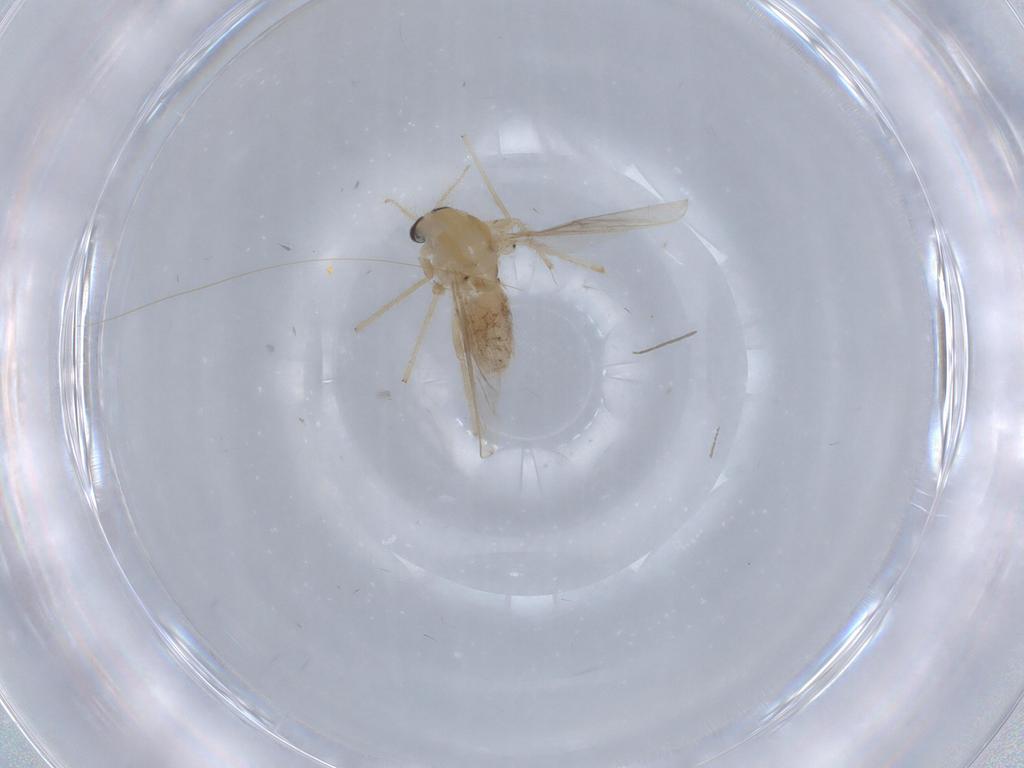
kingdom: Animalia
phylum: Arthropoda
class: Insecta
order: Diptera
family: Chironomidae
